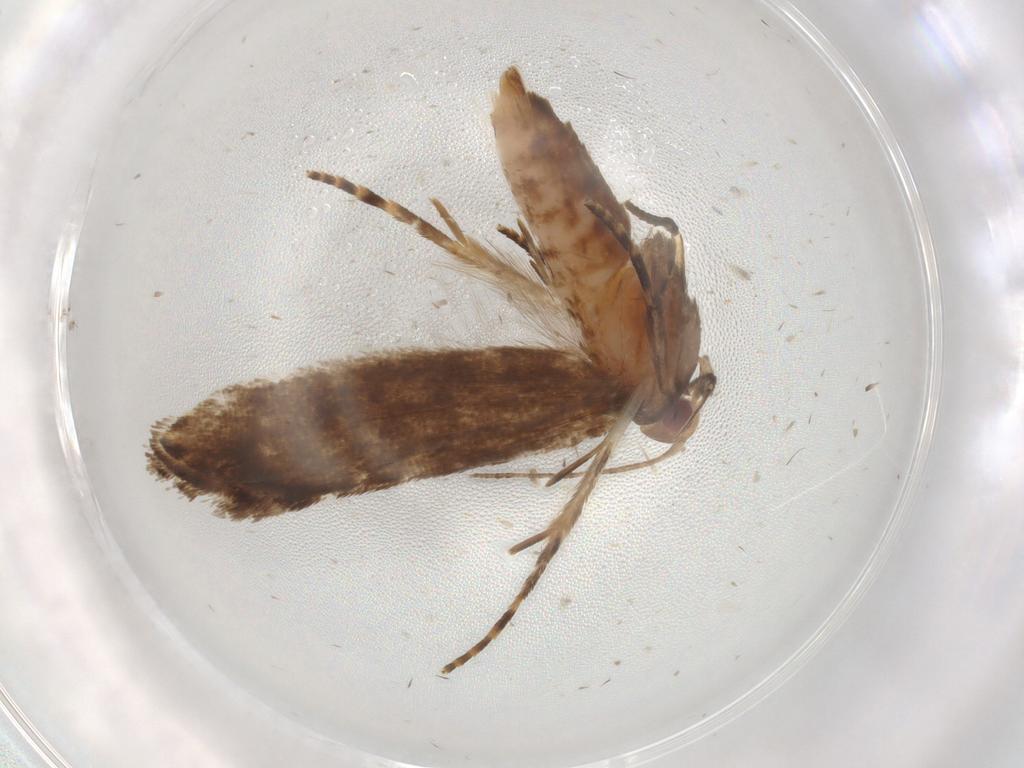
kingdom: Animalia
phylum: Arthropoda
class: Insecta
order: Lepidoptera
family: Gelechiidae
